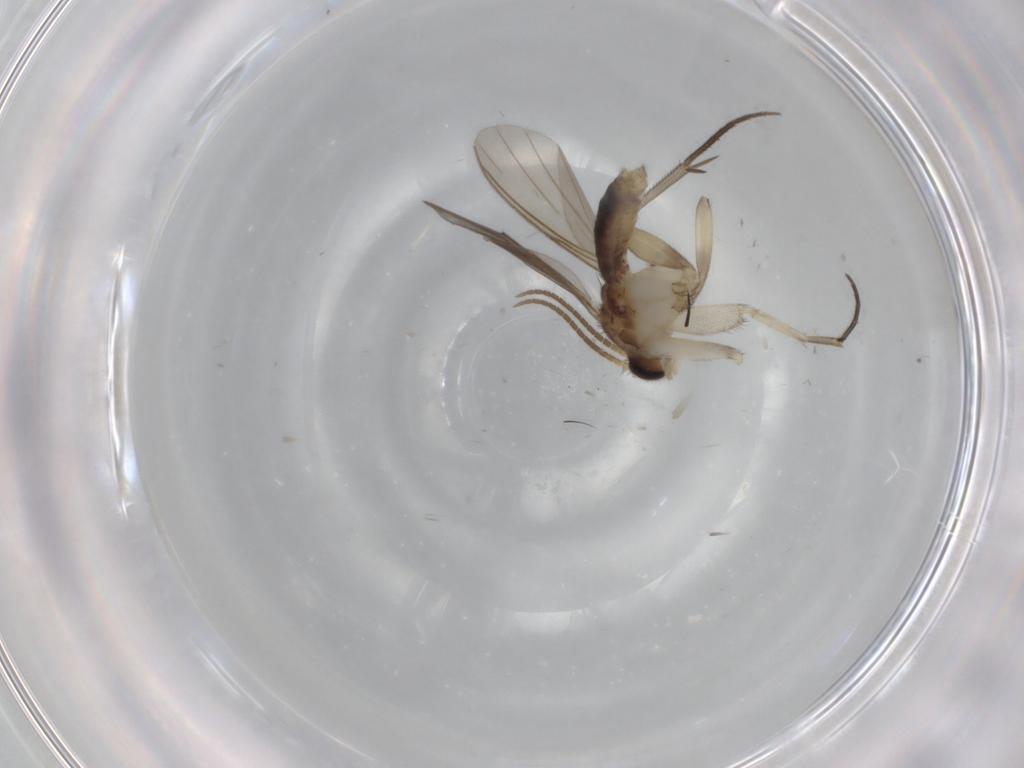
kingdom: Animalia
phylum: Arthropoda
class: Insecta
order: Diptera
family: Mycetophilidae
